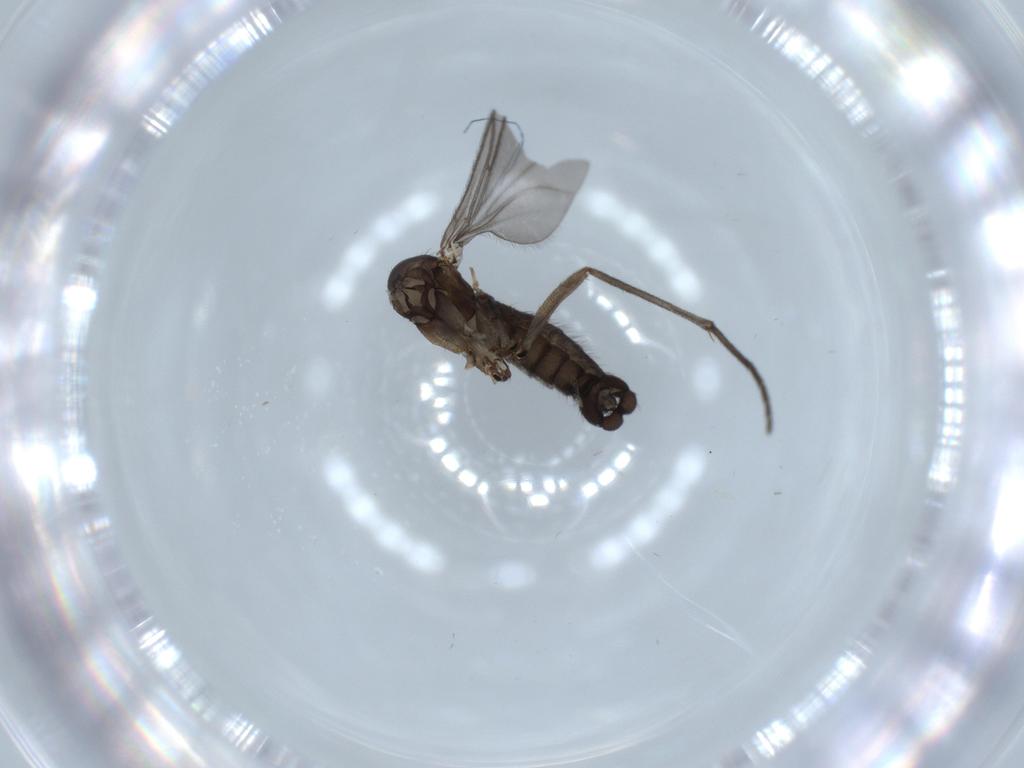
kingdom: Animalia
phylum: Arthropoda
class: Insecta
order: Diptera
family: Sciaridae
